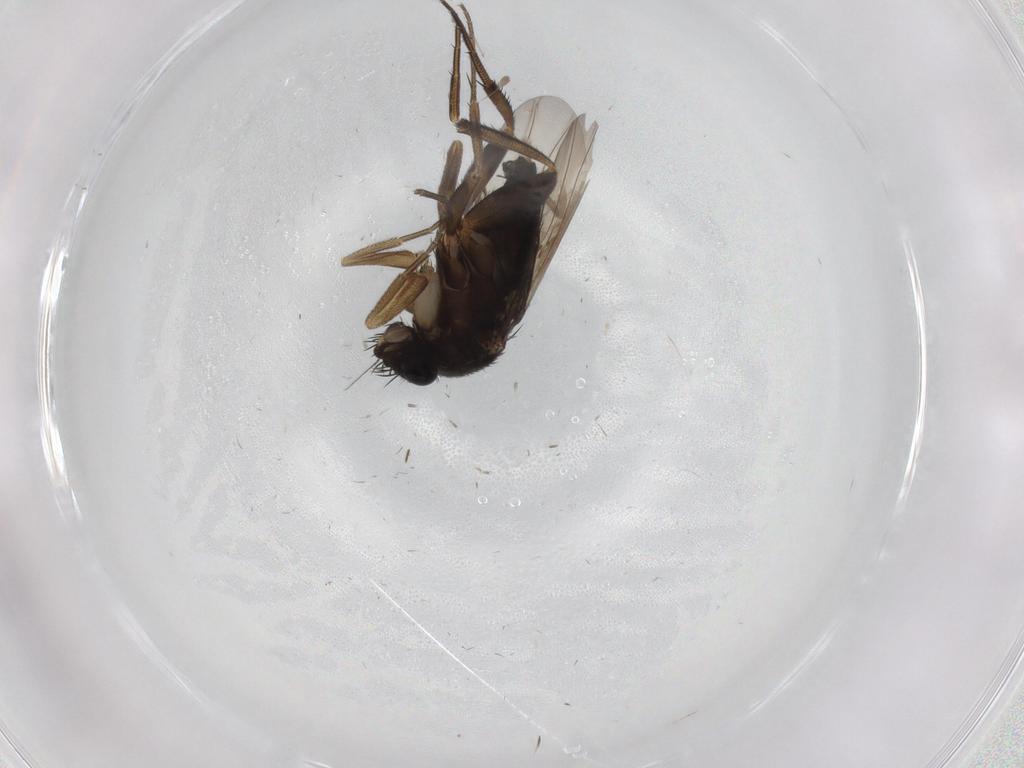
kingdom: Animalia
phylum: Arthropoda
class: Insecta
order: Diptera
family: Phoridae
